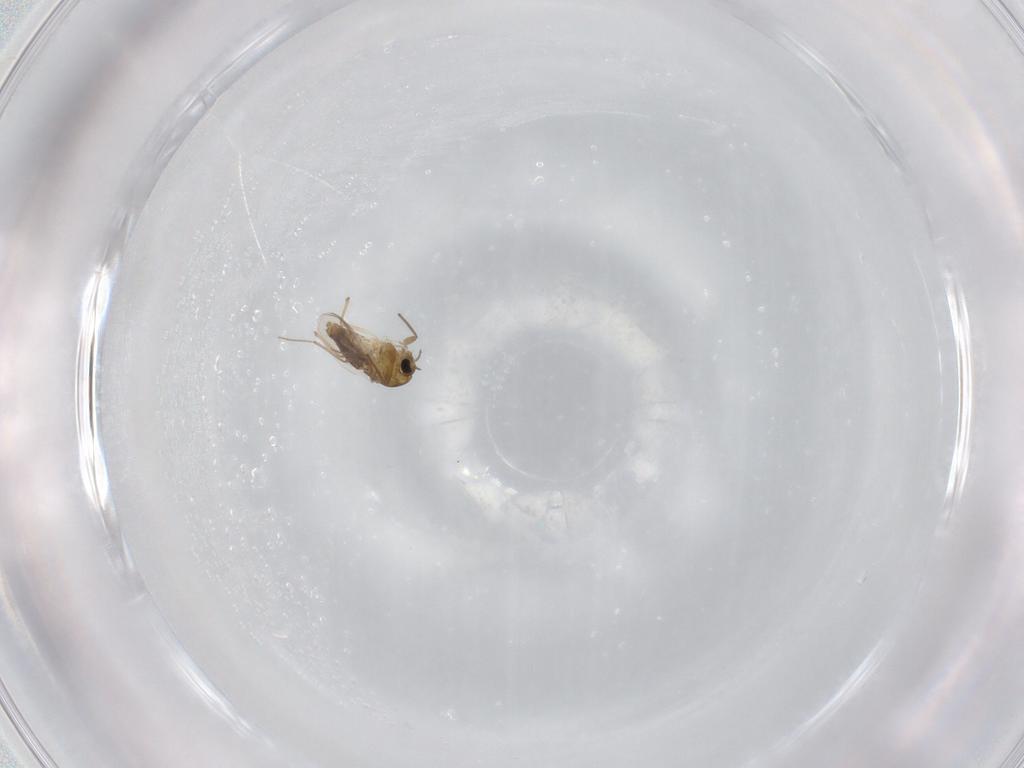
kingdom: Animalia
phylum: Arthropoda
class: Insecta
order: Diptera
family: Chironomidae
